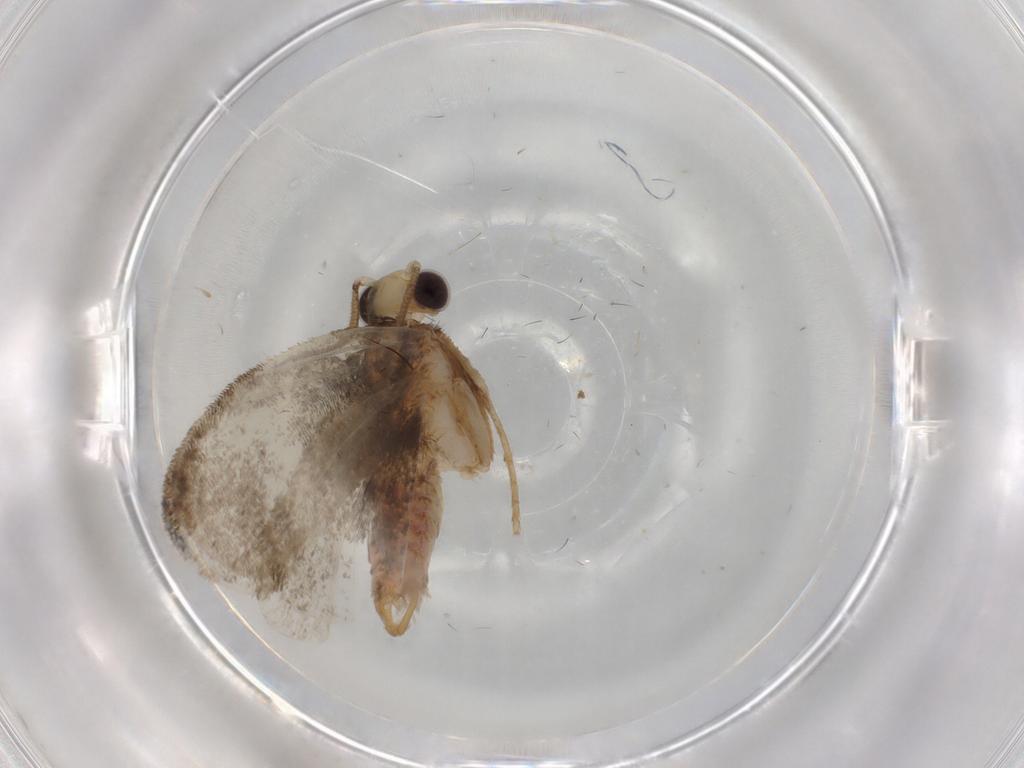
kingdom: Animalia
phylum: Arthropoda
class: Insecta
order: Lepidoptera
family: Tineidae
